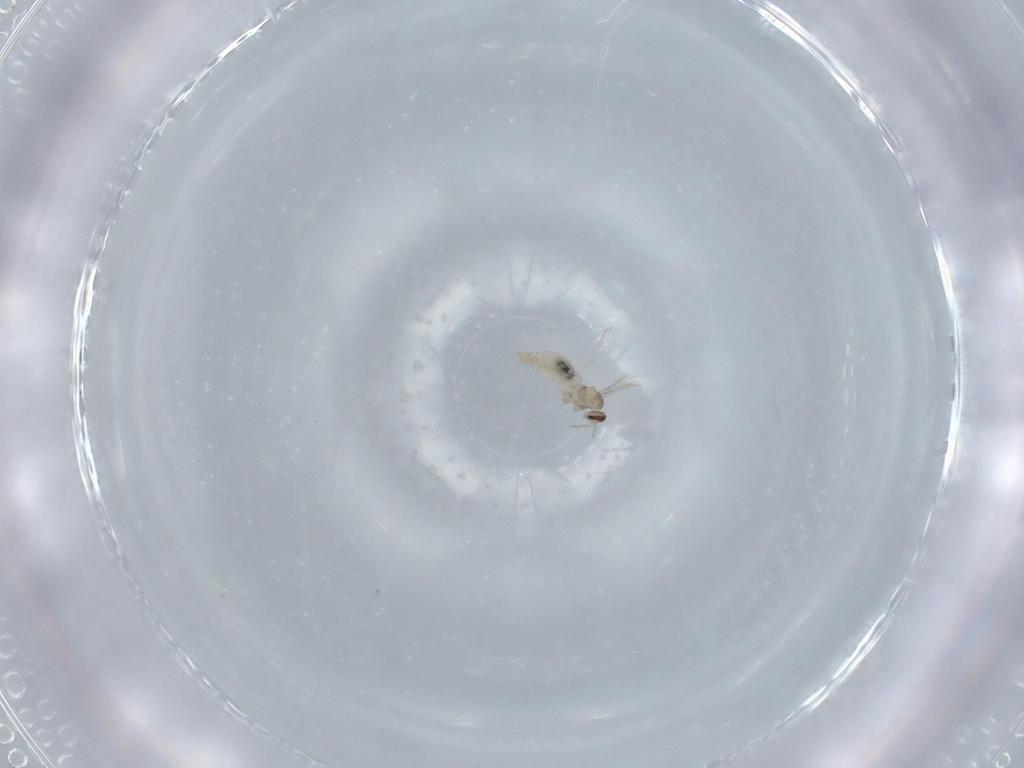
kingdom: Animalia
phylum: Arthropoda
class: Insecta
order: Diptera
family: Cecidomyiidae
